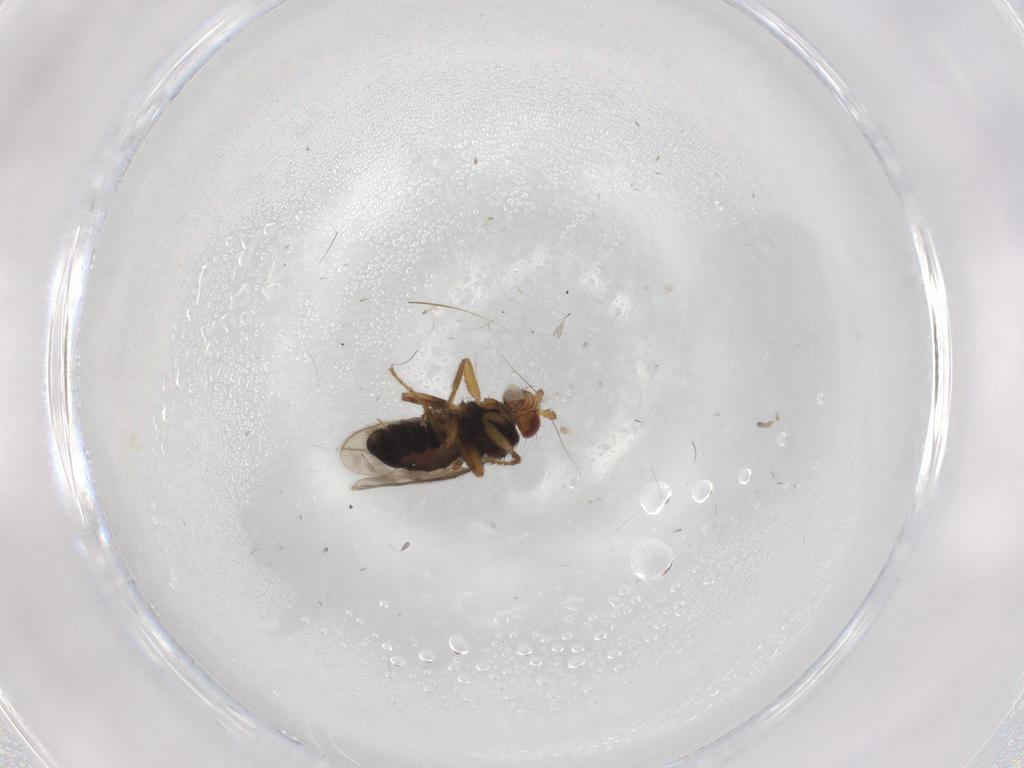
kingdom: Animalia
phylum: Arthropoda
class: Insecta
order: Diptera
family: Sphaeroceridae
